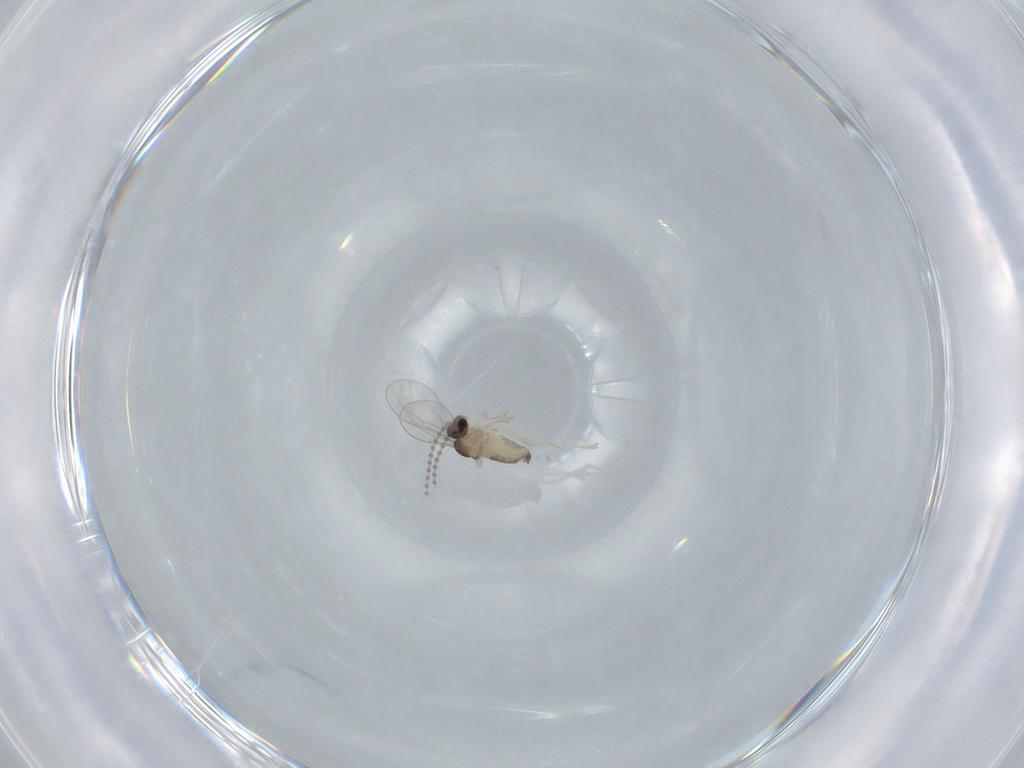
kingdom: Animalia
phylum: Arthropoda
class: Insecta
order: Diptera
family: Cecidomyiidae
